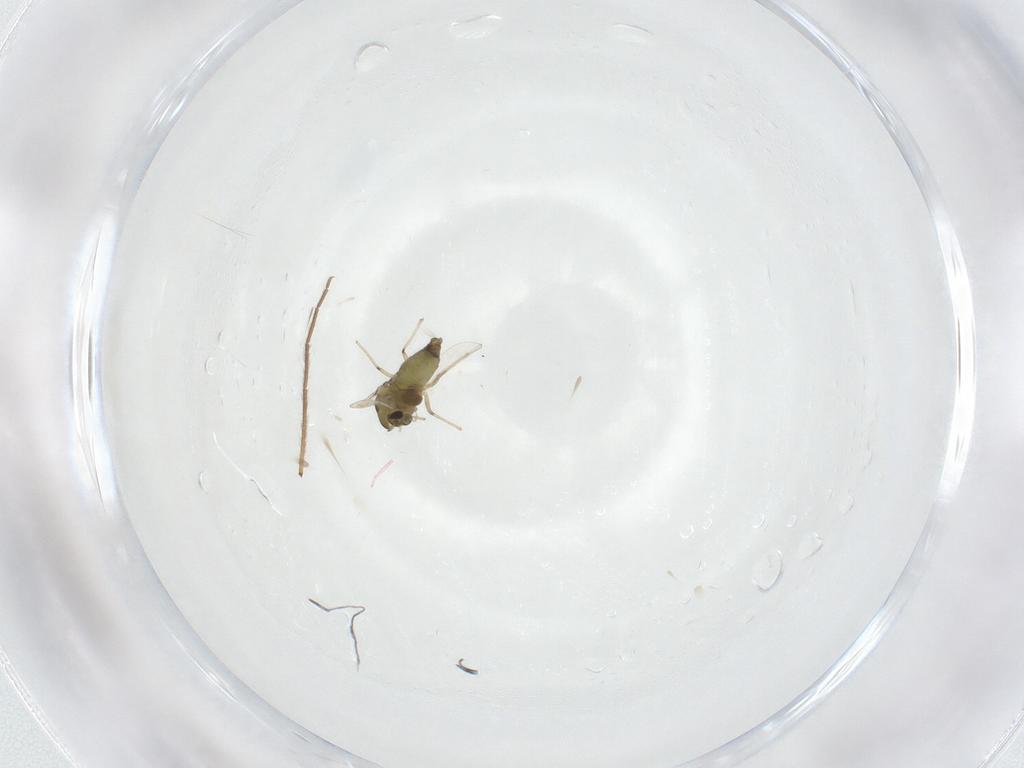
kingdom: Animalia
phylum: Arthropoda
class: Insecta
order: Diptera
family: Chironomidae
